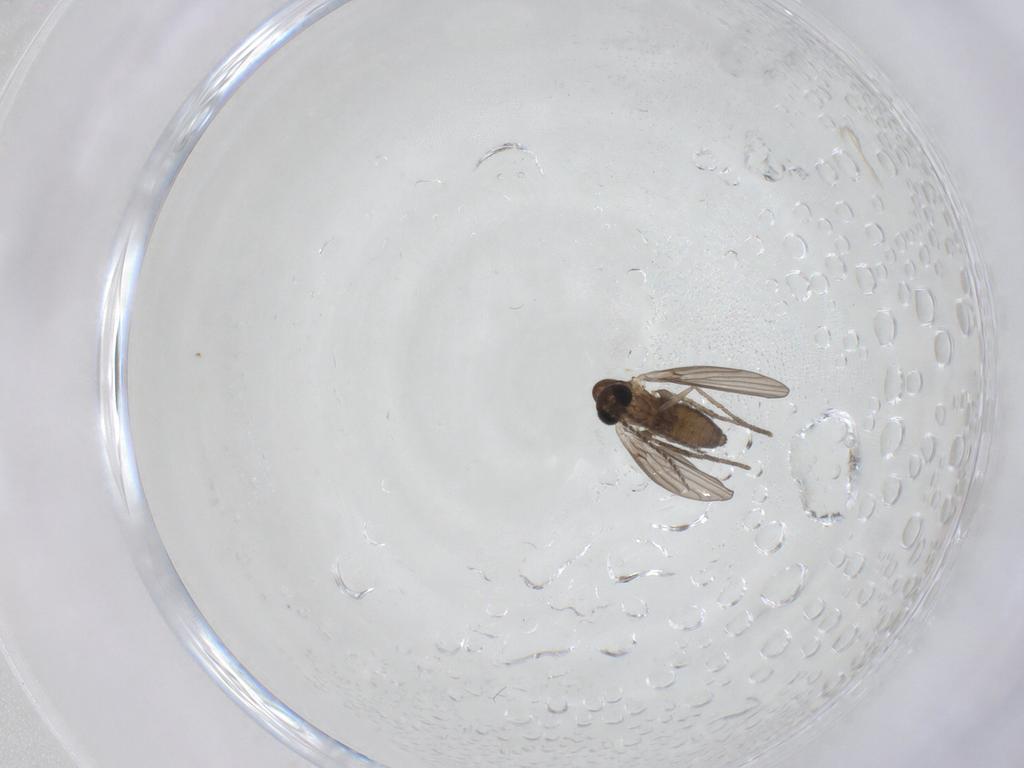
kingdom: Animalia
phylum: Arthropoda
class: Insecta
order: Diptera
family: Psychodidae
